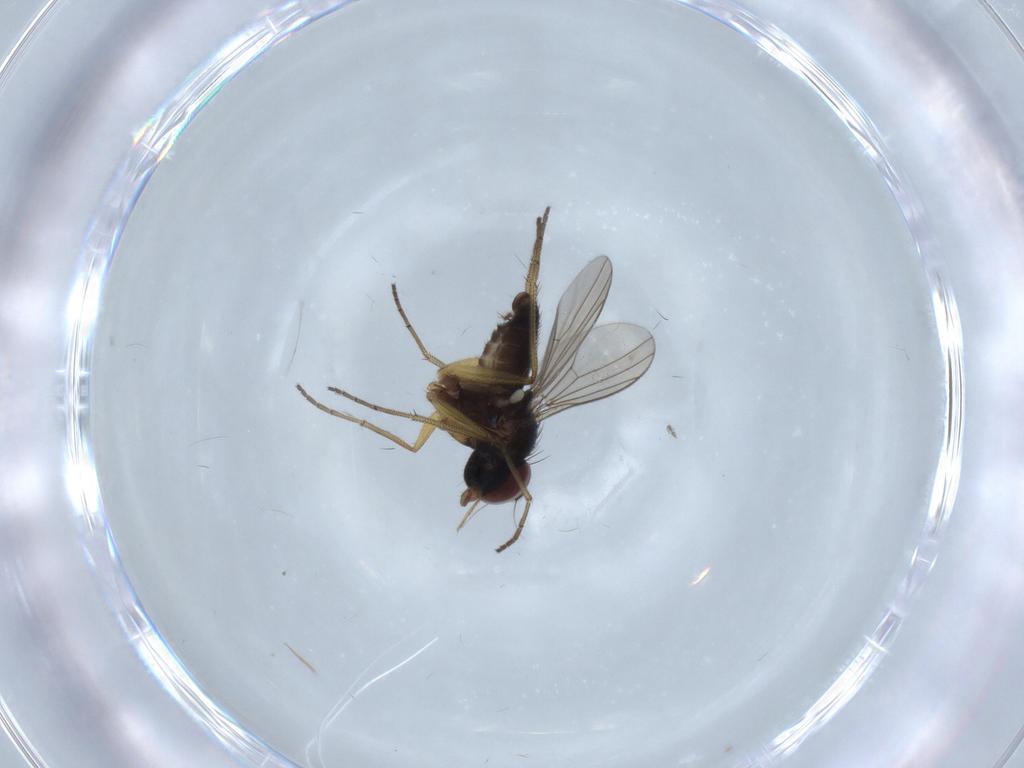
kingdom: Animalia
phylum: Arthropoda
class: Insecta
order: Diptera
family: Dolichopodidae
